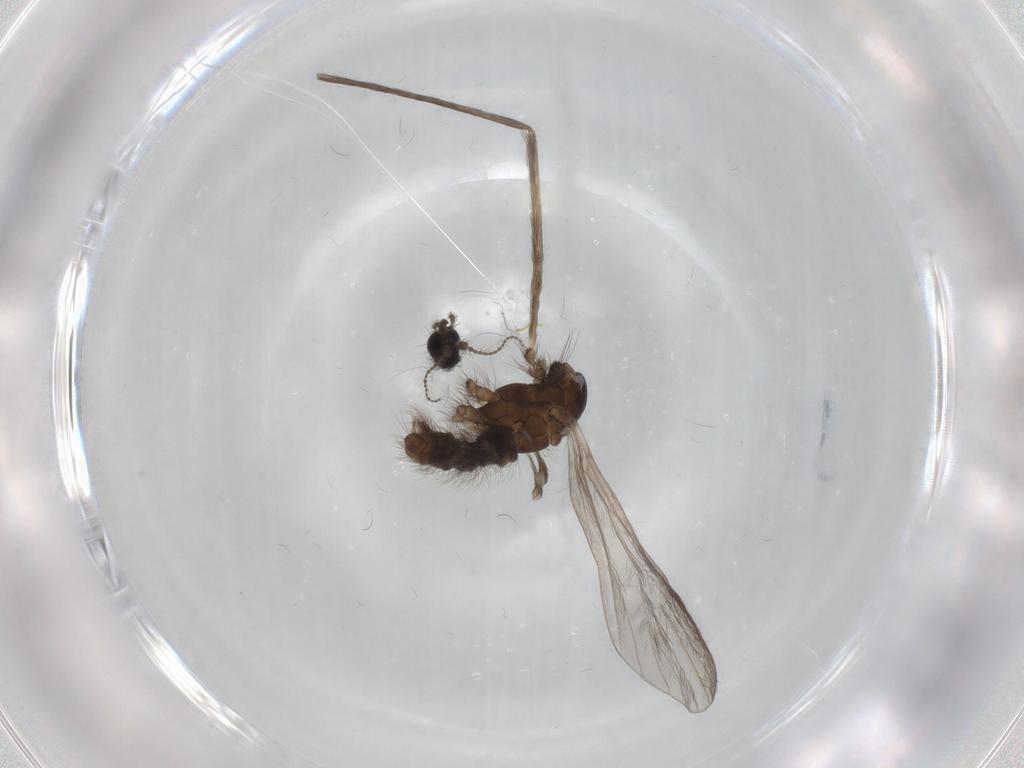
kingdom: Animalia
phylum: Arthropoda
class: Insecta
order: Diptera
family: Limoniidae
